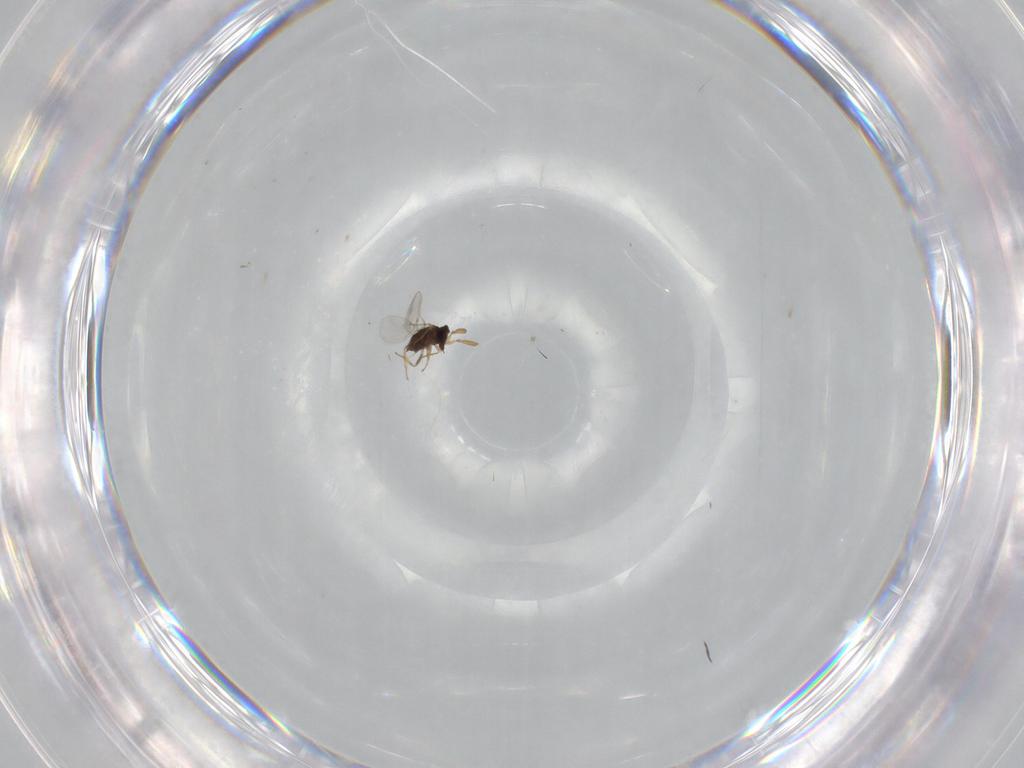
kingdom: Animalia
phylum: Arthropoda
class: Insecta
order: Hymenoptera
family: Encyrtidae
